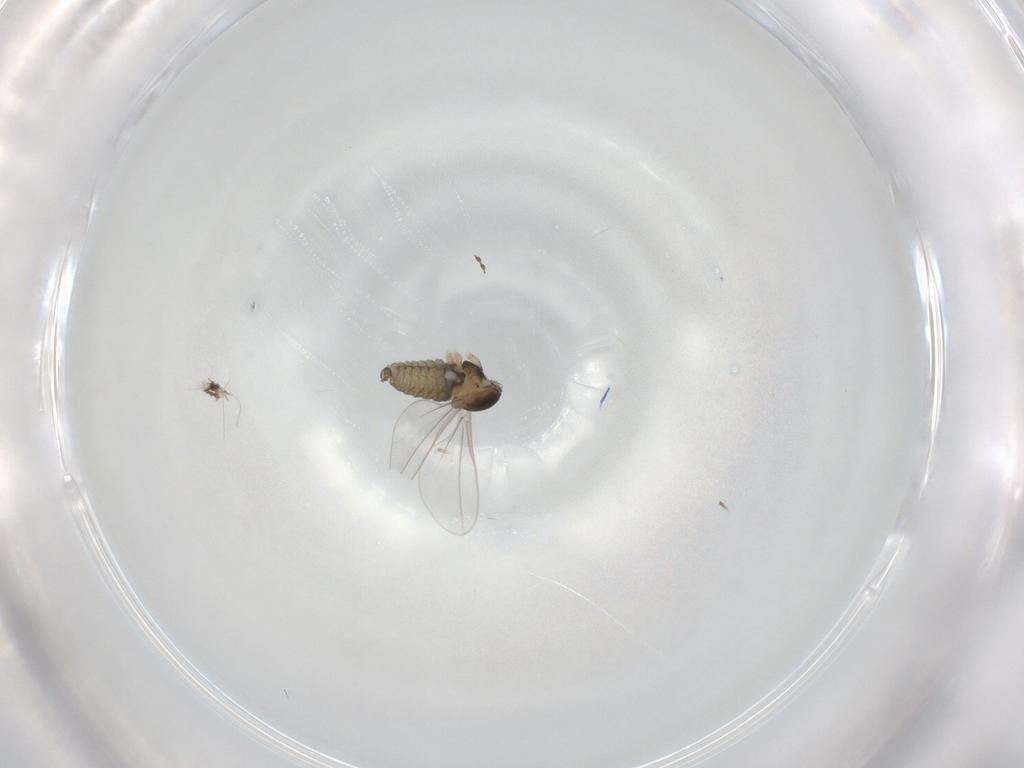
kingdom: Animalia
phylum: Arthropoda
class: Insecta
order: Diptera
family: Cecidomyiidae
